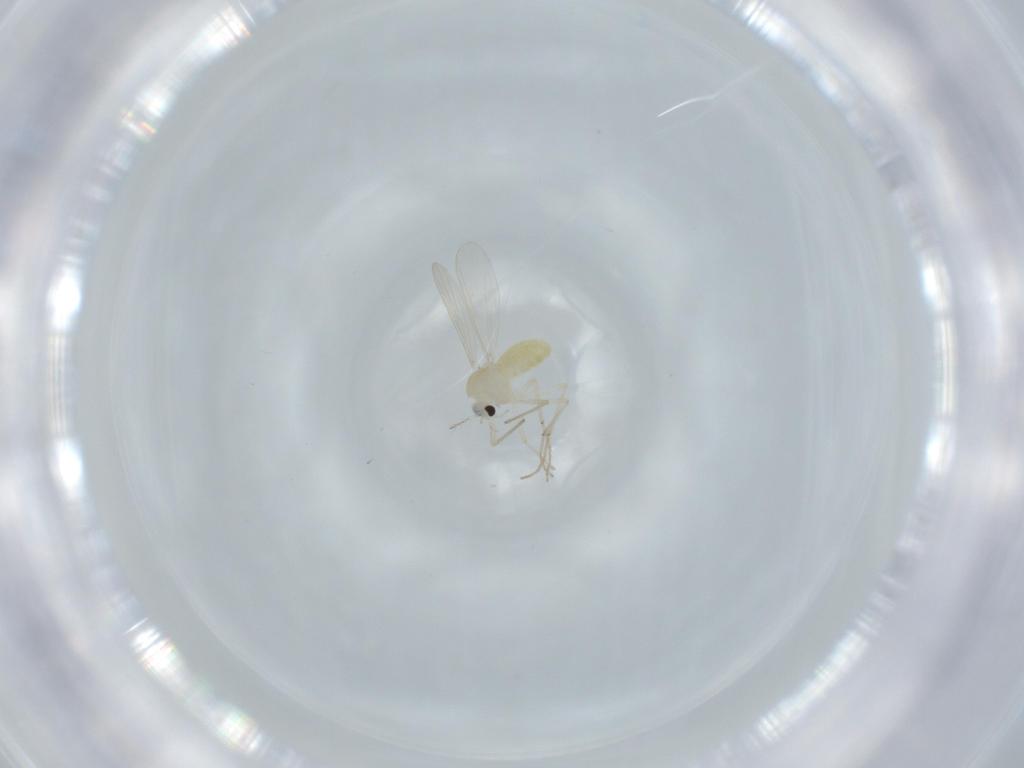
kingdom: Animalia
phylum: Arthropoda
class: Insecta
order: Diptera
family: Chironomidae
